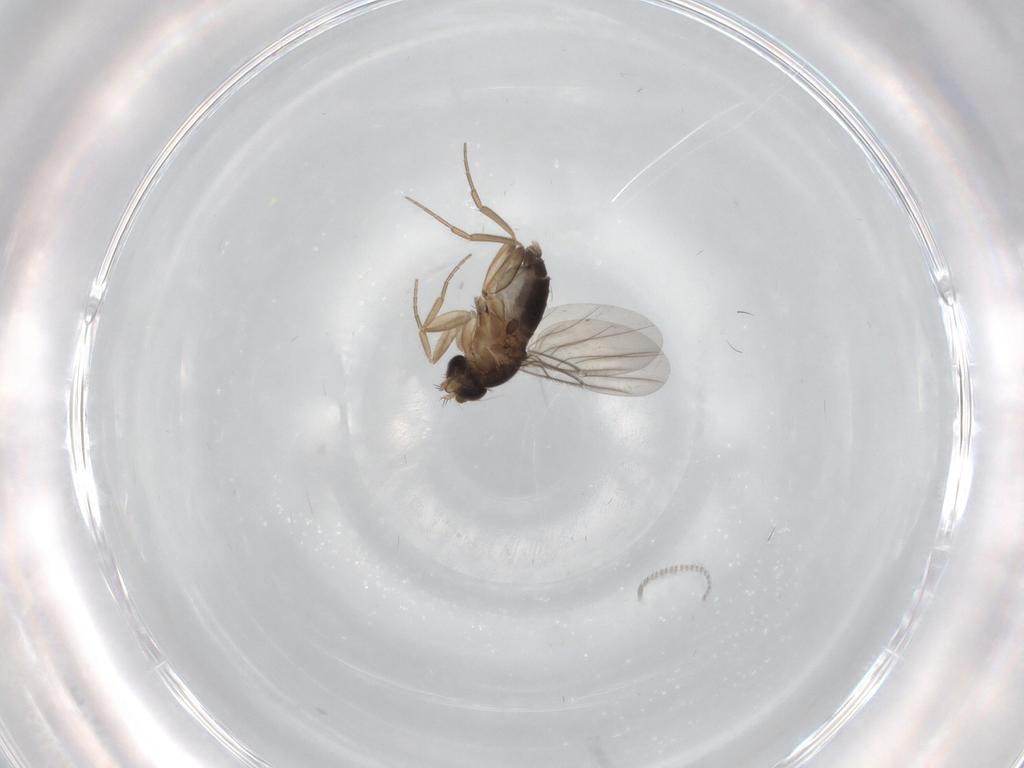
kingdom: Animalia
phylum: Arthropoda
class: Insecta
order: Diptera
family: Phoridae
